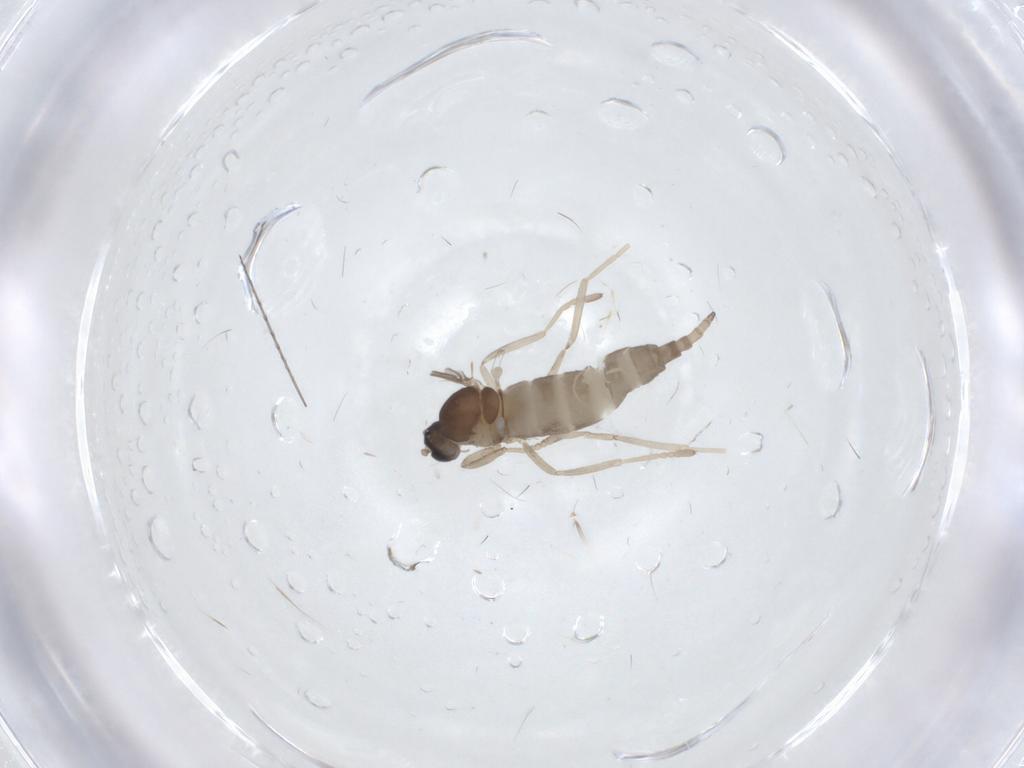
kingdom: Animalia
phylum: Arthropoda
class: Insecta
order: Diptera
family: Cecidomyiidae
